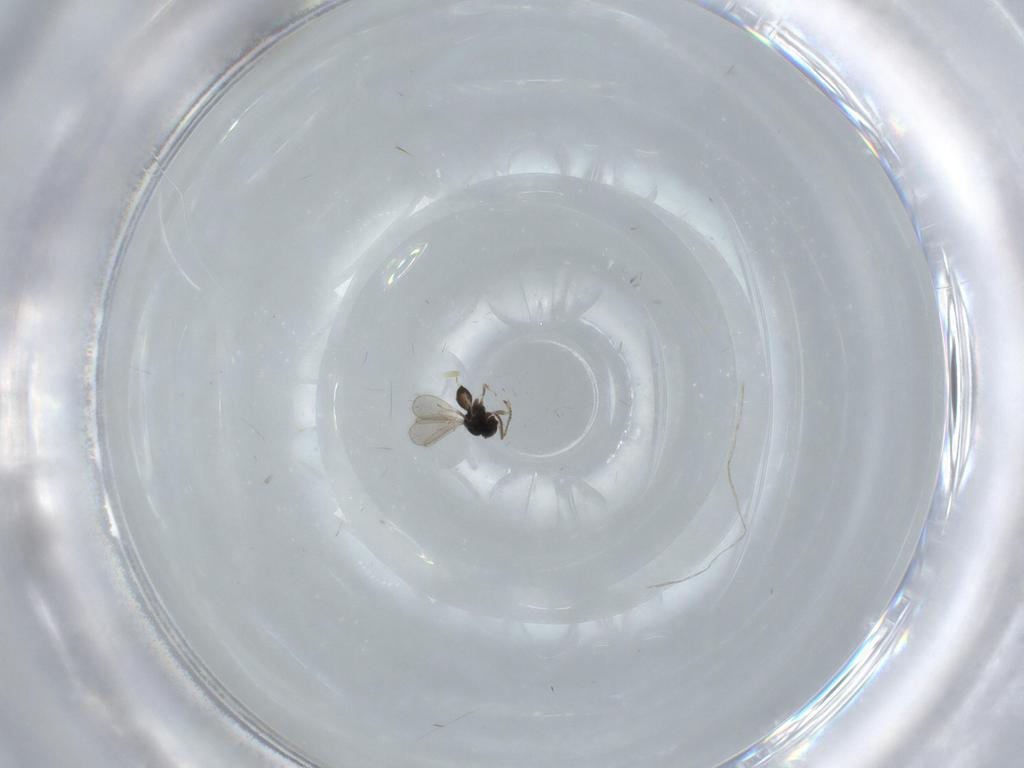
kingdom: Animalia
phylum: Arthropoda
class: Insecta
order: Hymenoptera
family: Scelionidae
